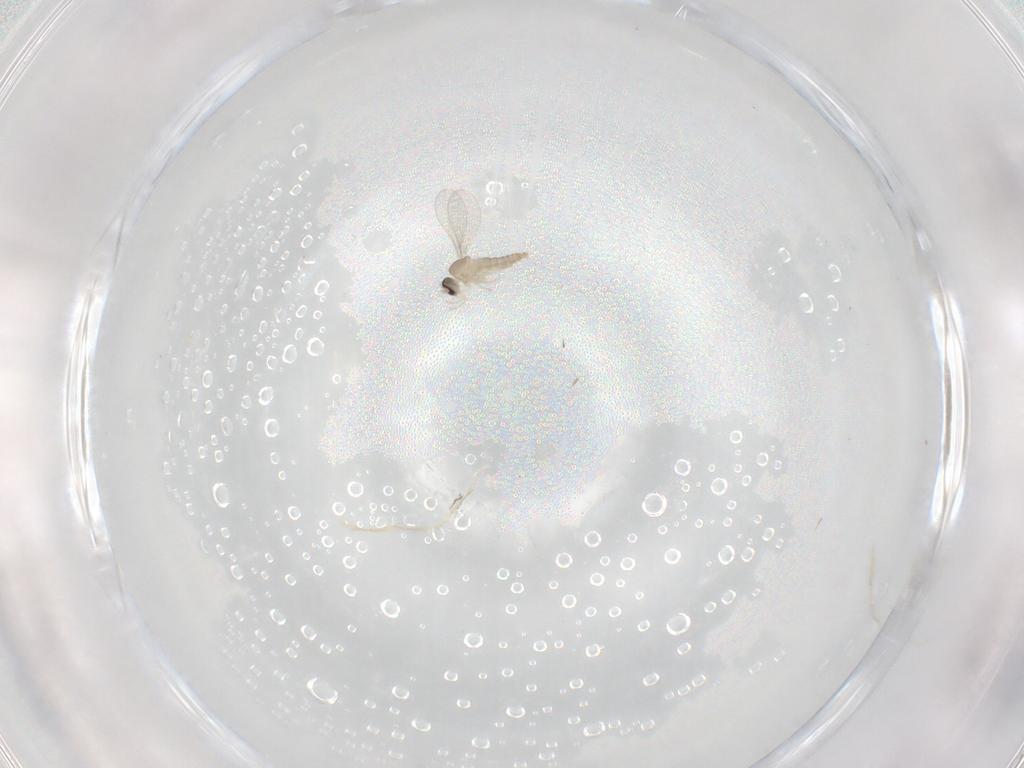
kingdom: Animalia
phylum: Arthropoda
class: Insecta
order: Diptera
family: Cecidomyiidae
